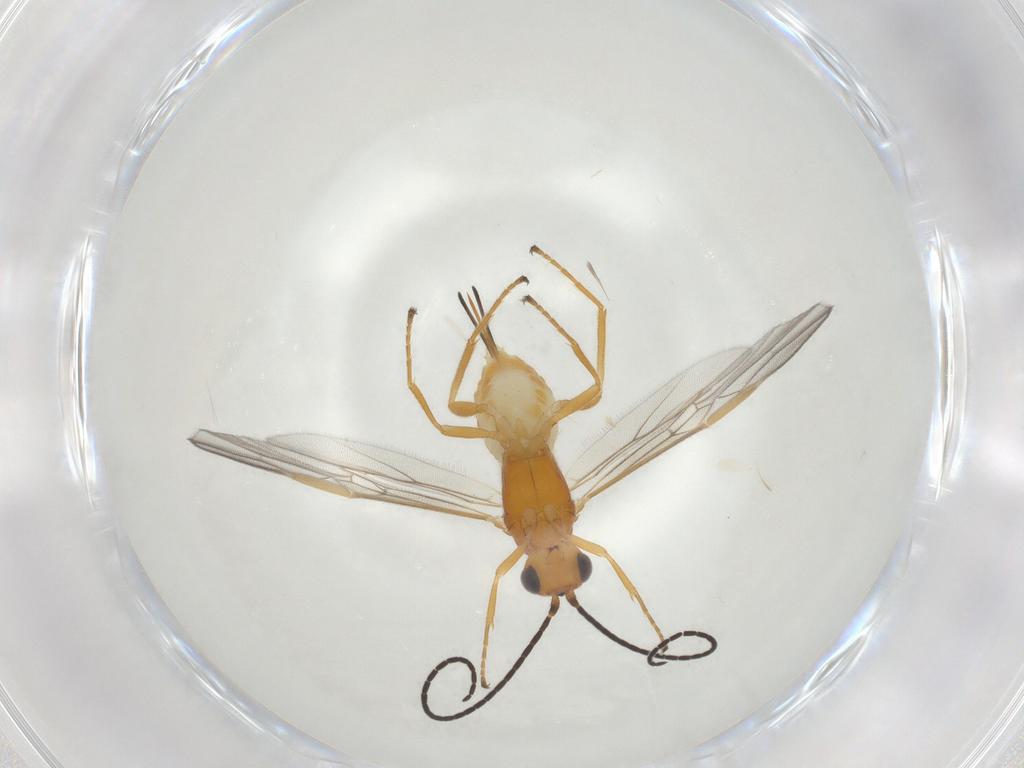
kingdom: Animalia
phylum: Arthropoda
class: Insecta
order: Hymenoptera
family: Braconidae
